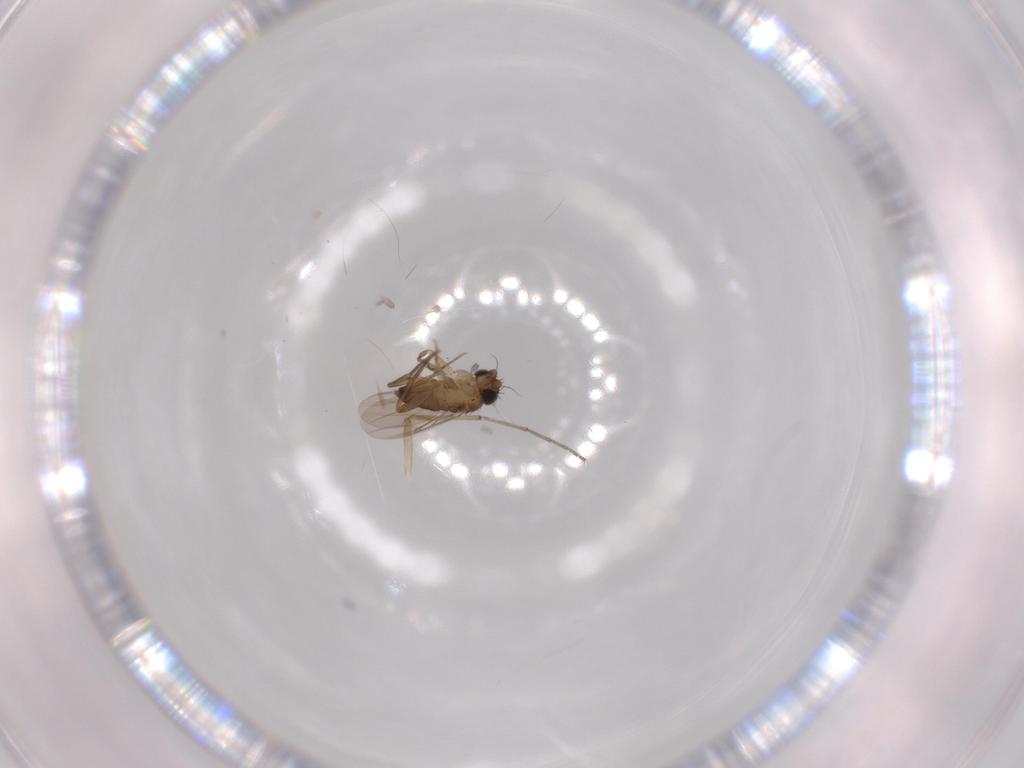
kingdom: Animalia
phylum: Arthropoda
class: Insecta
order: Diptera
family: Phoridae
